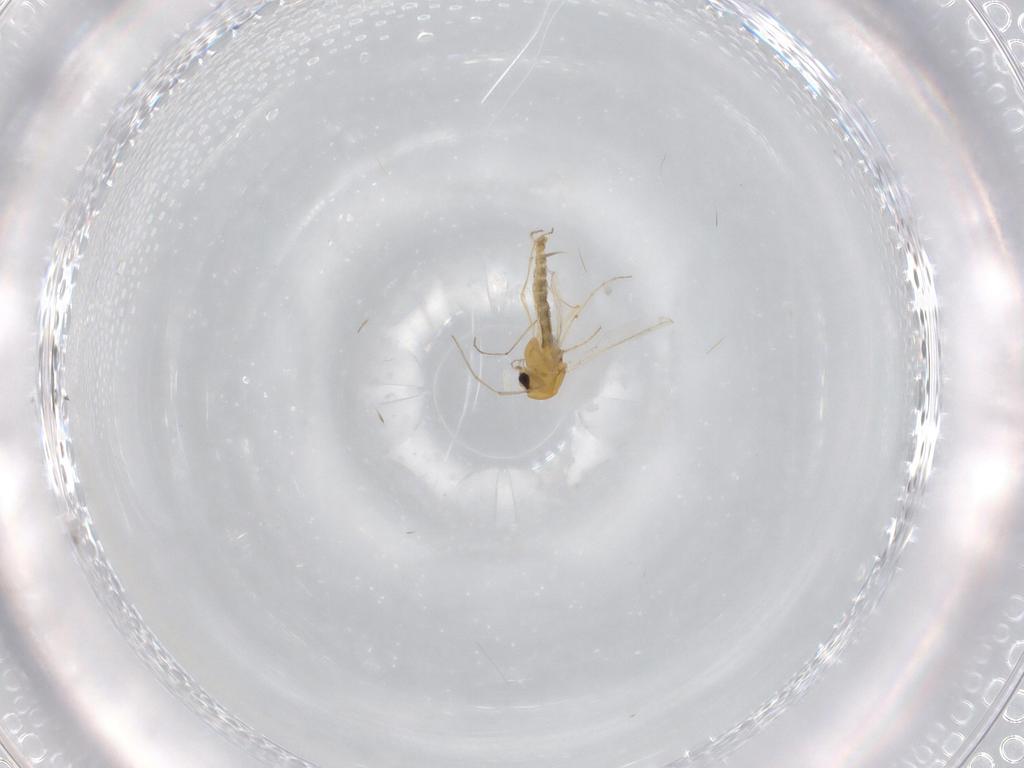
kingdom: Animalia
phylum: Arthropoda
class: Insecta
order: Diptera
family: Chironomidae
